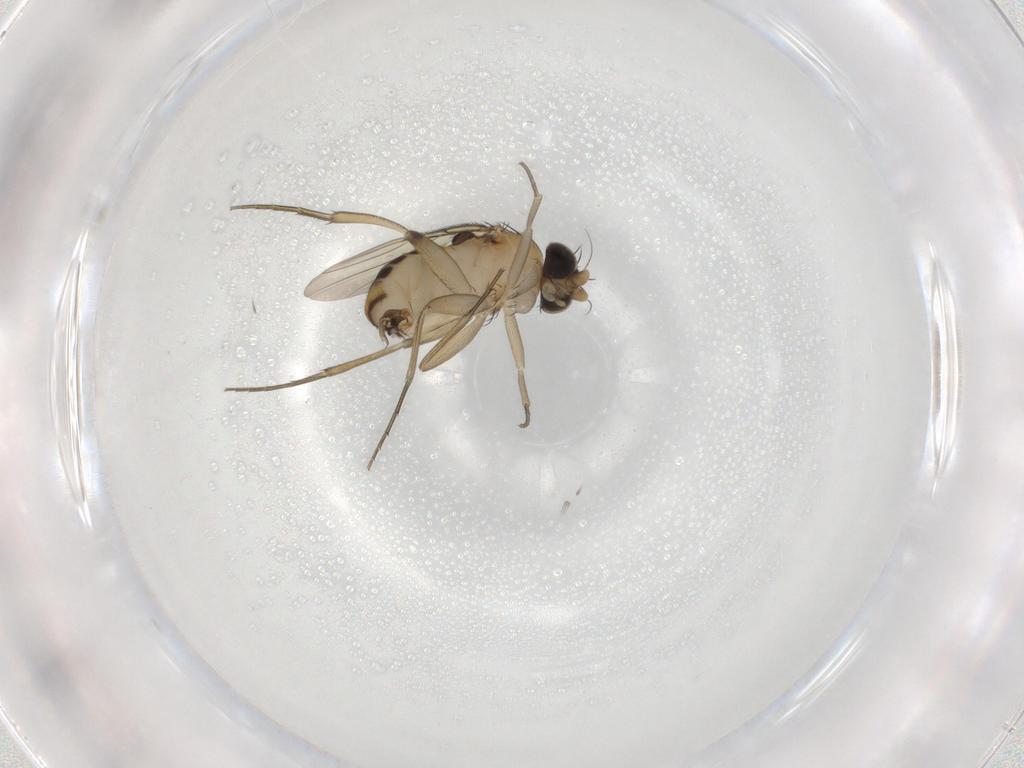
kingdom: Animalia
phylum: Arthropoda
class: Insecta
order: Diptera
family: Phoridae
